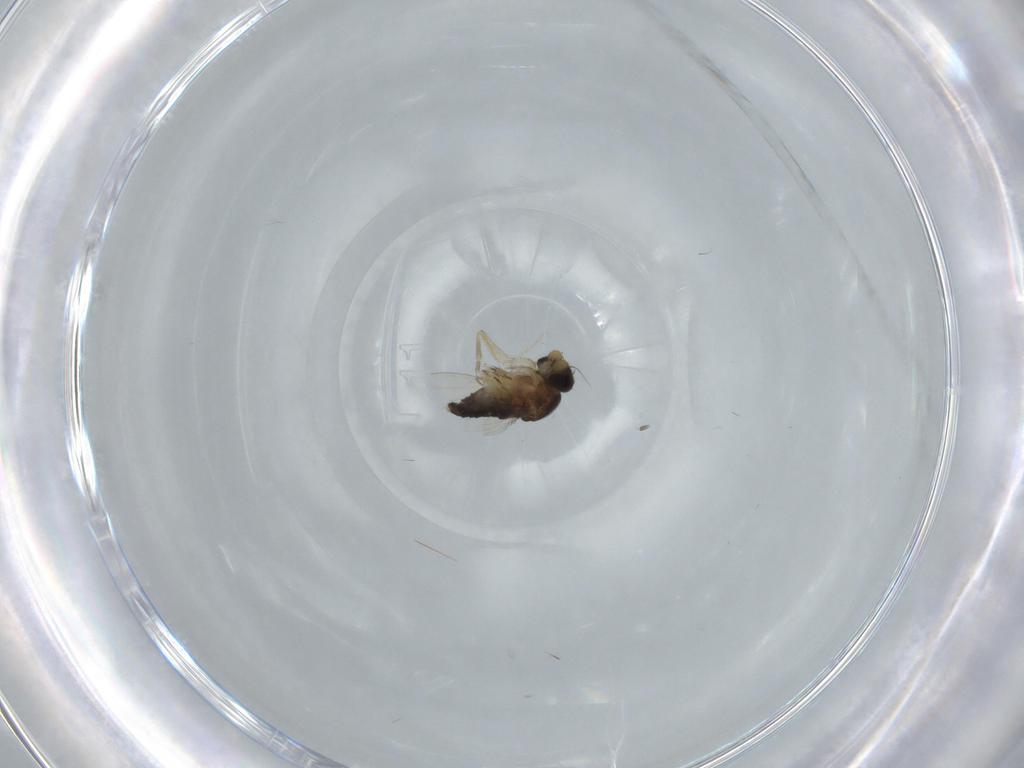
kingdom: Animalia
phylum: Arthropoda
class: Insecta
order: Diptera
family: Phoridae
